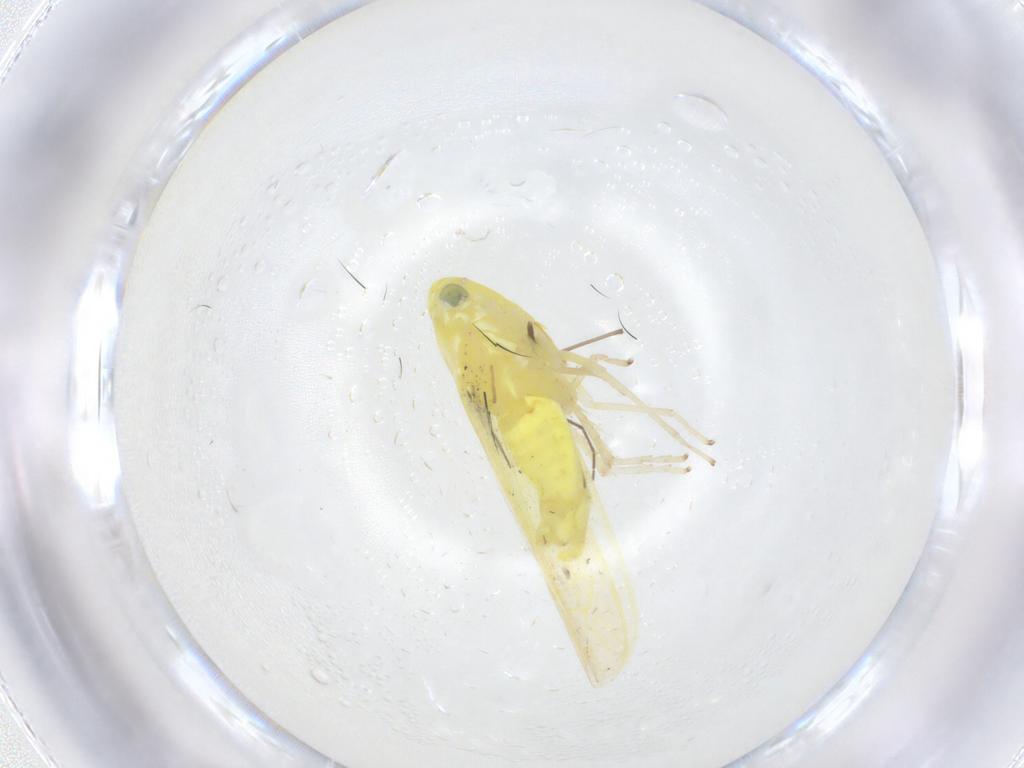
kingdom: Animalia
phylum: Arthropoda
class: Insecta
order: Hemiptera
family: Cicadellidae
